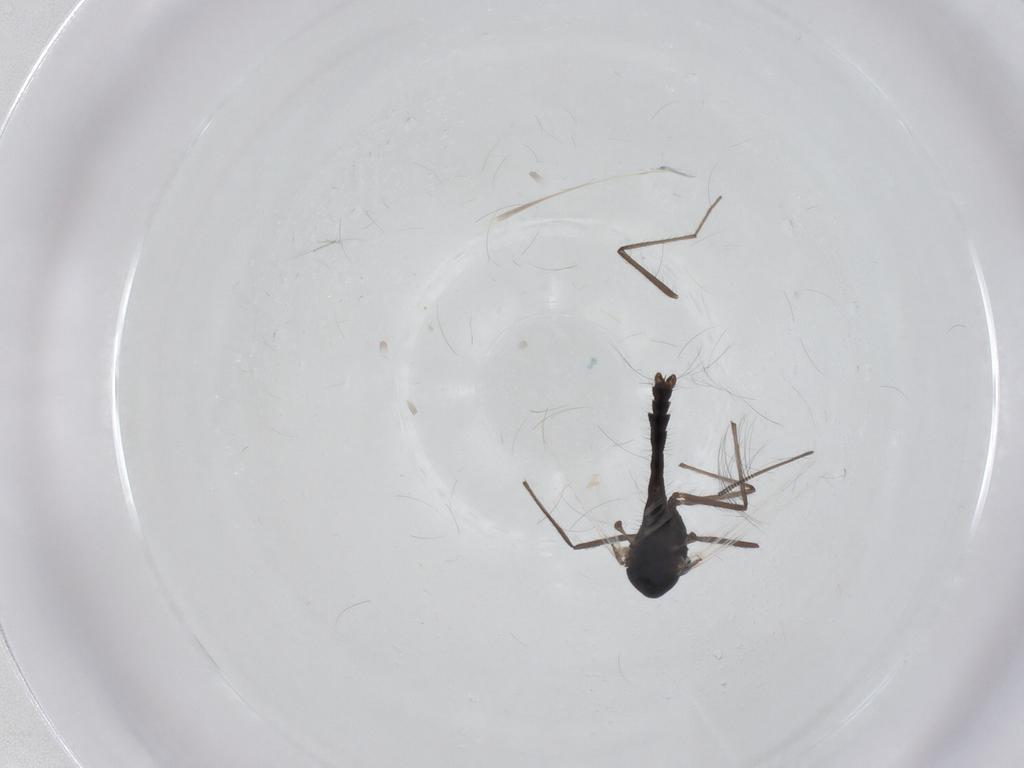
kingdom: Animalia
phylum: Arthropoda
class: Insecta
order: Diptera
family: Chironomidae
